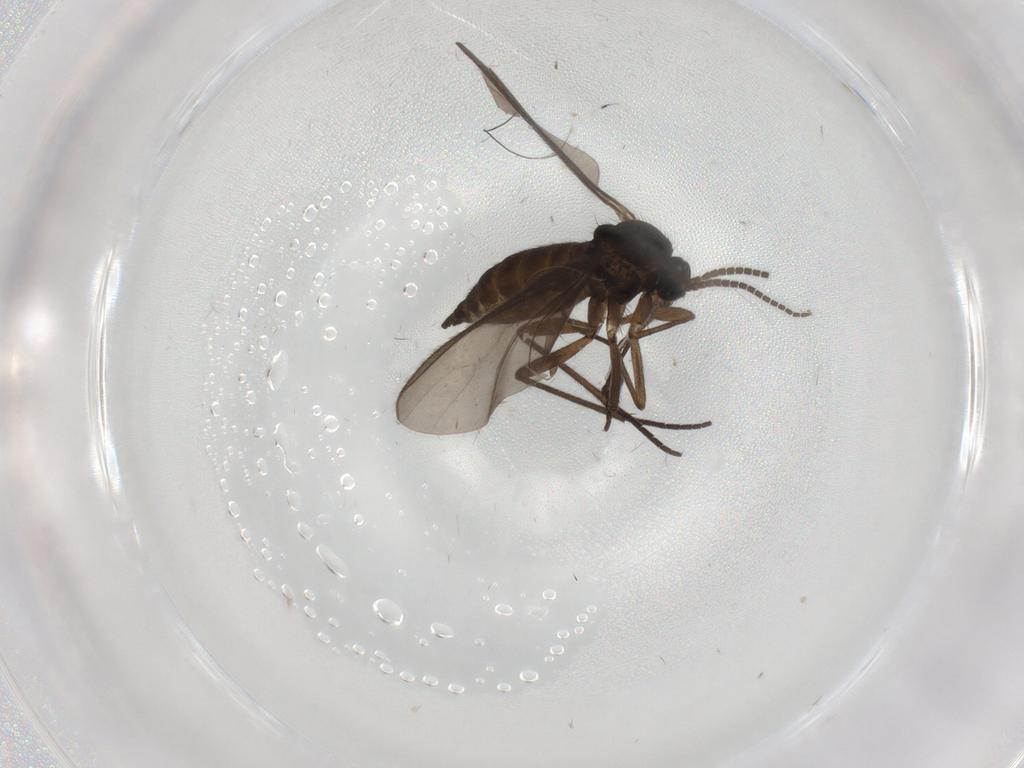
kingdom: Animalia
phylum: Arthropoda
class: Insecta
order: Diptera
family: Sciaridae
